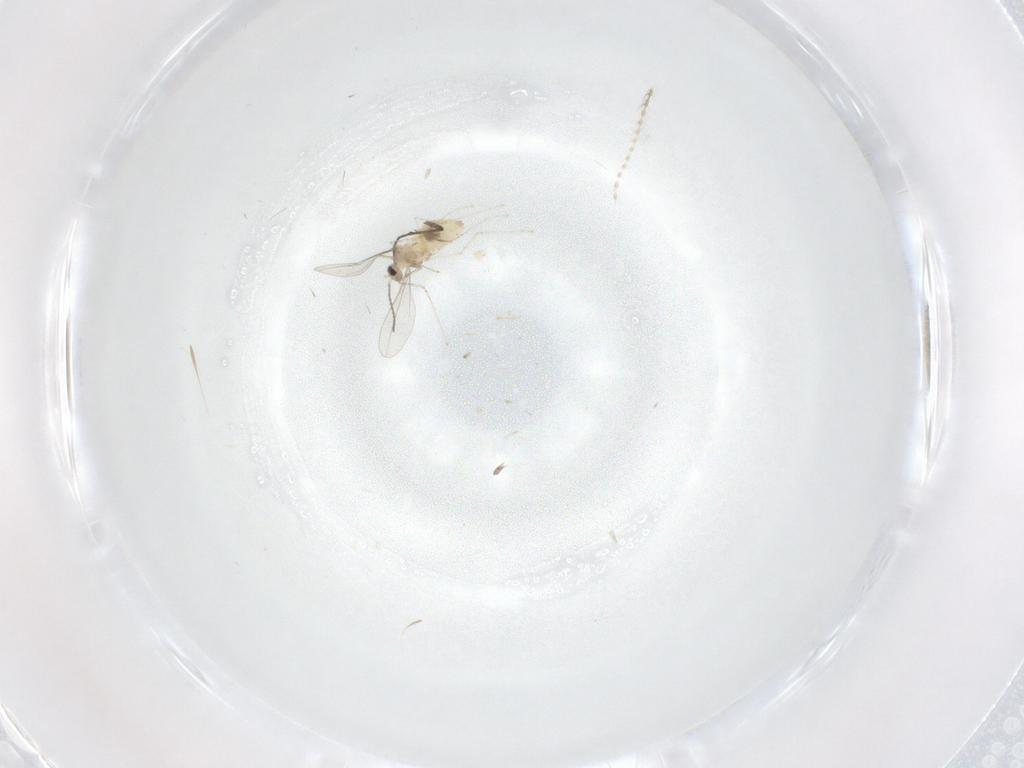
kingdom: Animalia
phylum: Arthropoda
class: Insecta
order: Diptera
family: Cecidomyiidae
